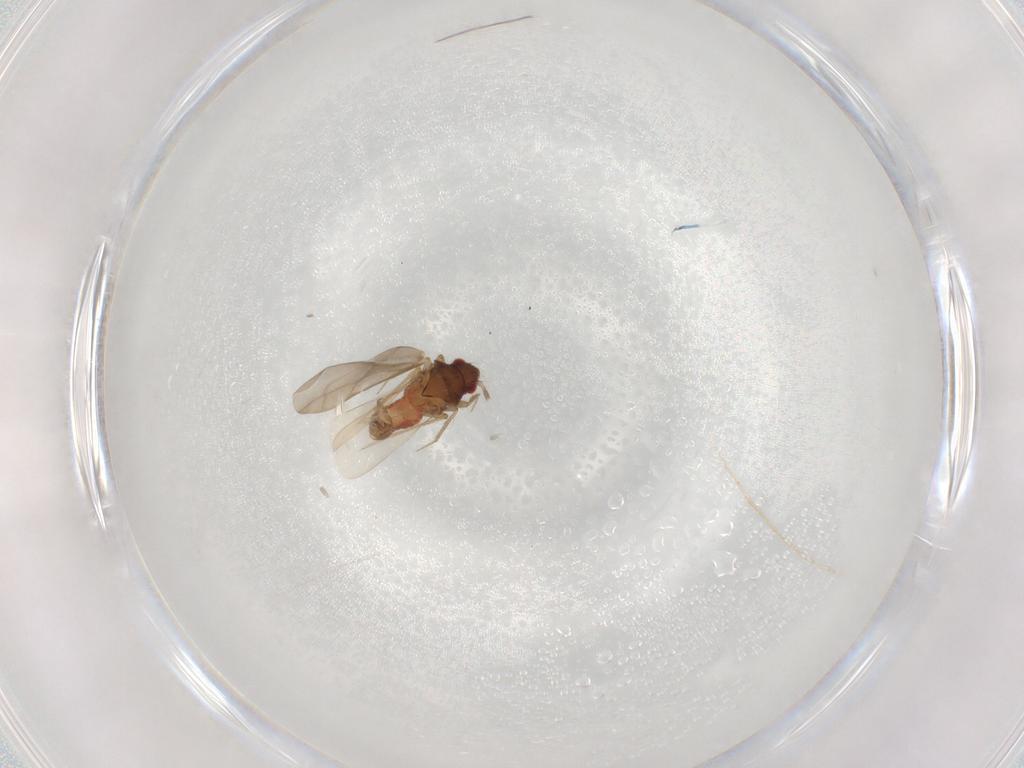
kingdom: Animalia
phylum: Arthropoda
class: Insecta
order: Hemiptera
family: Ceratocombidae
